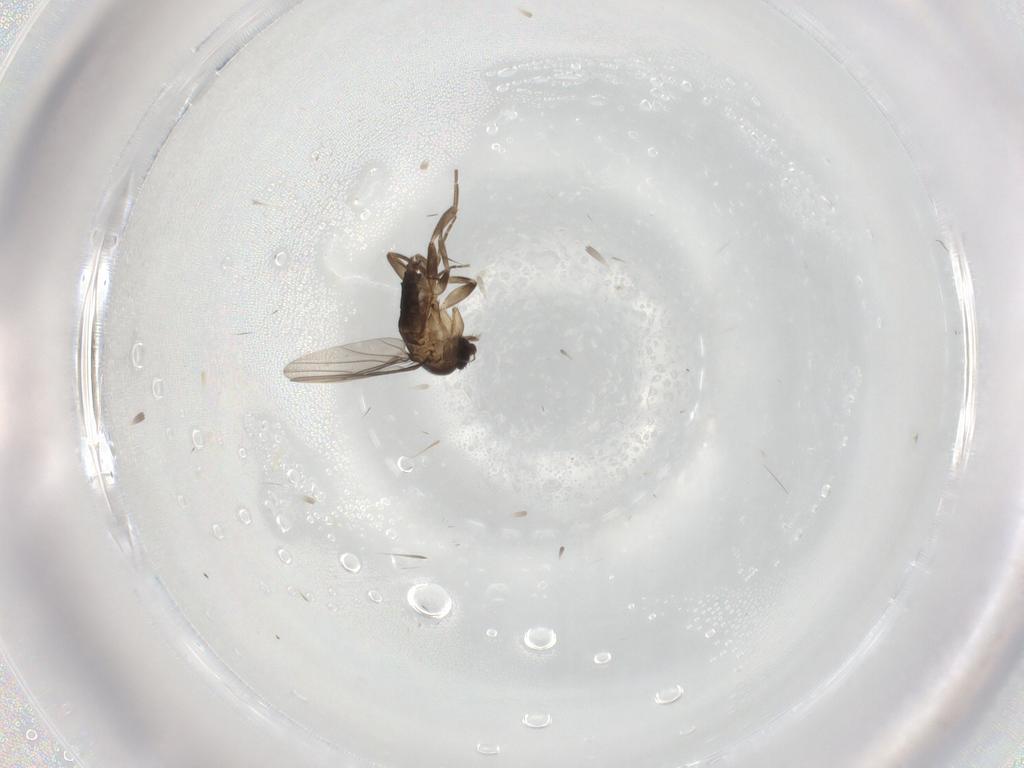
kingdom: Animalia
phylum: Arthropoda
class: Insecta
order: Diptera
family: Phoridae
